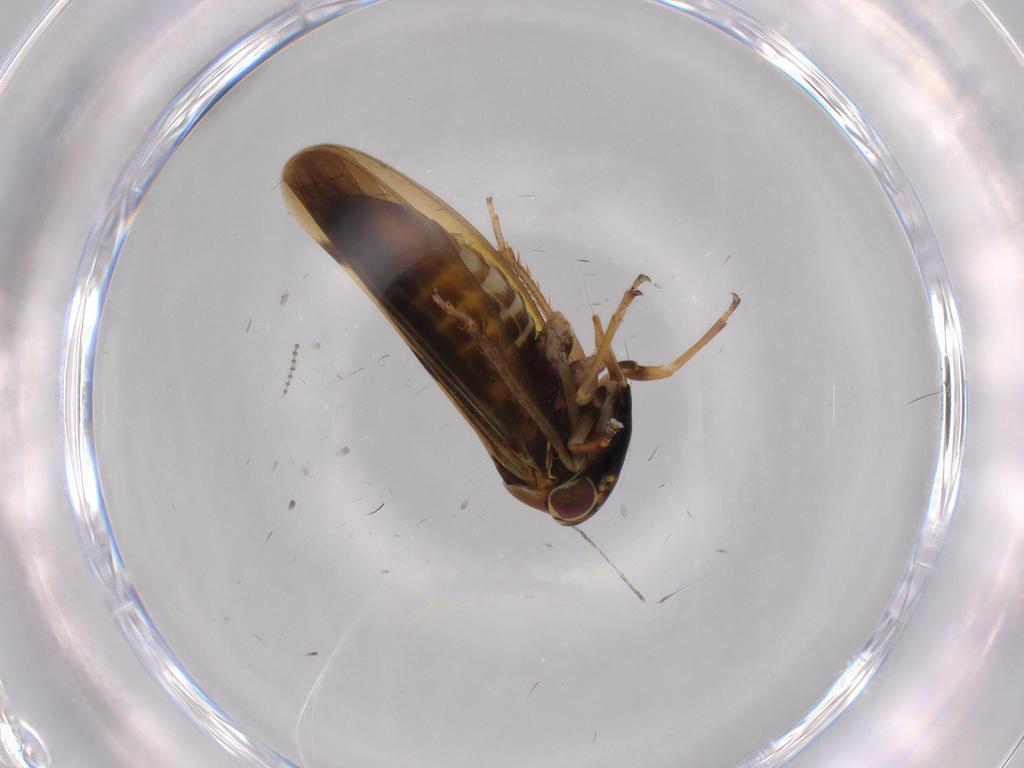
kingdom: Animalia
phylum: Arthropoda
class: Insecta
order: Hemiptera
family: Cicadellidae
